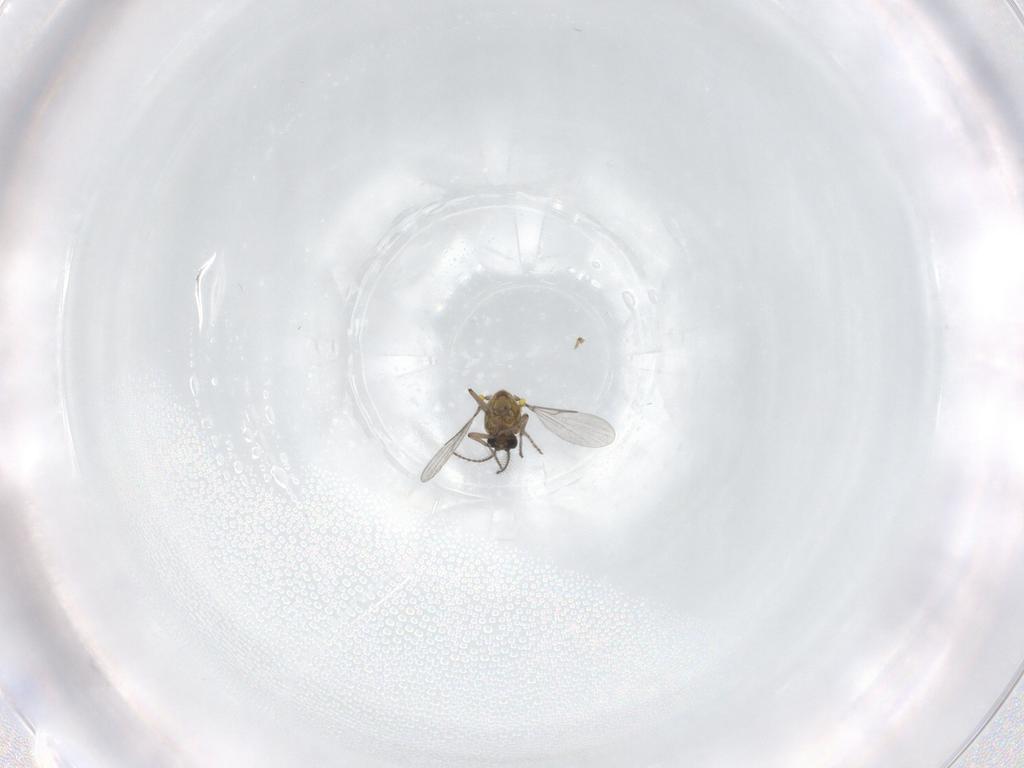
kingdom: Animalia
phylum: Arthropoda
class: Insecta
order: Diptera
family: Ceratopogonidae
